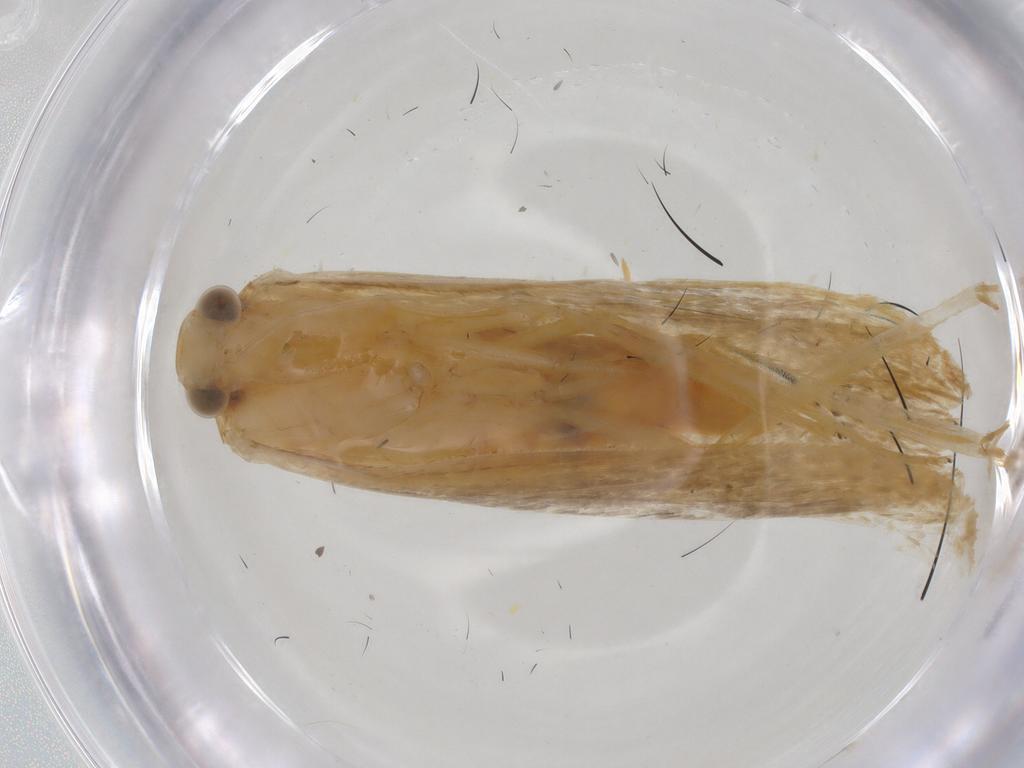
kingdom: Animalia
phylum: Arthropoda
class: Insecta
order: Lepidoptera
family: Lecithoceridae
